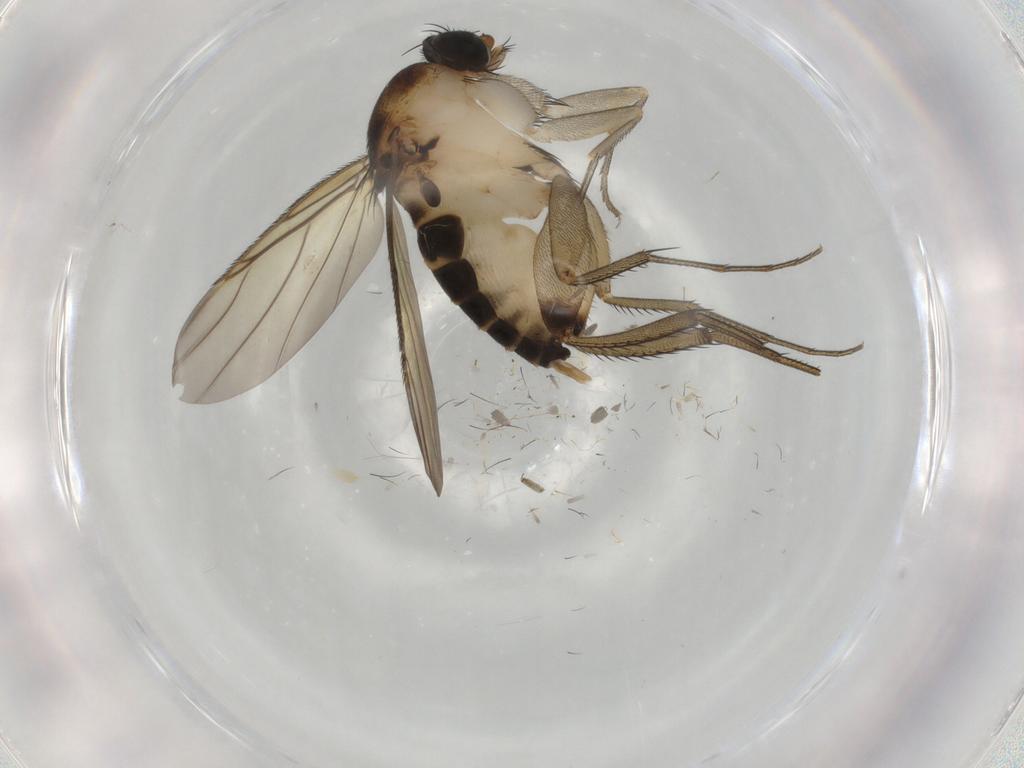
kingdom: Animalia
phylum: Arthropoda
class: Insecta
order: Diptera
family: Phoridae
